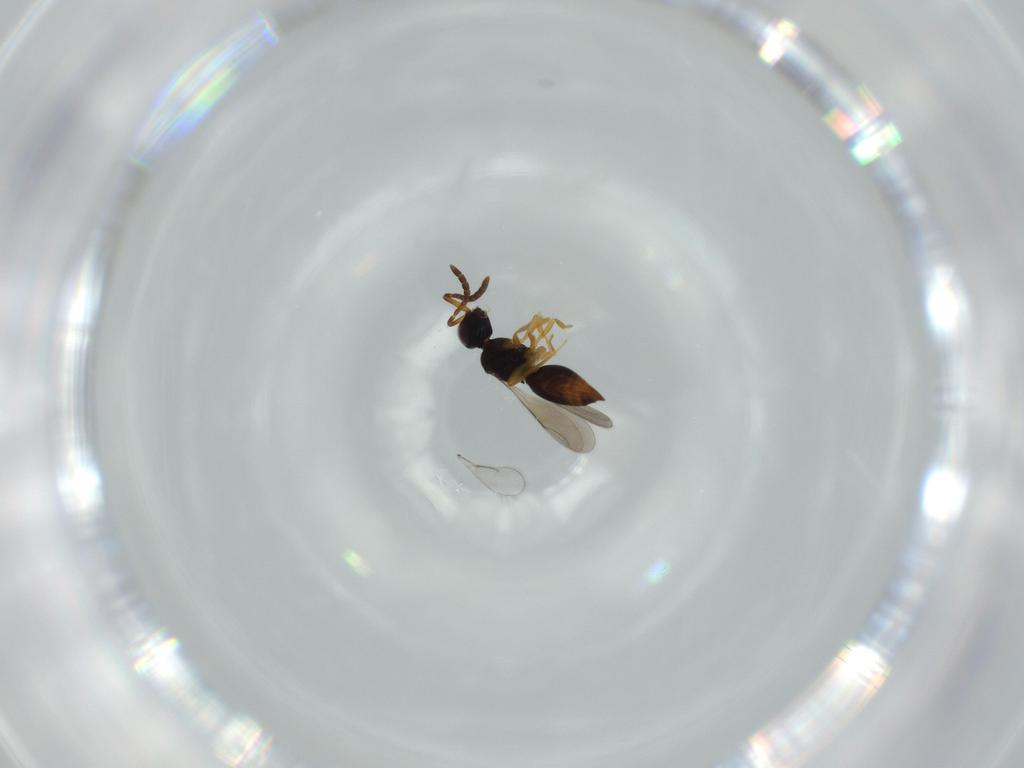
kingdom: Animalia
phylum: Arthropoda
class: Insecta
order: Hymenoptera
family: Aphelinidae
